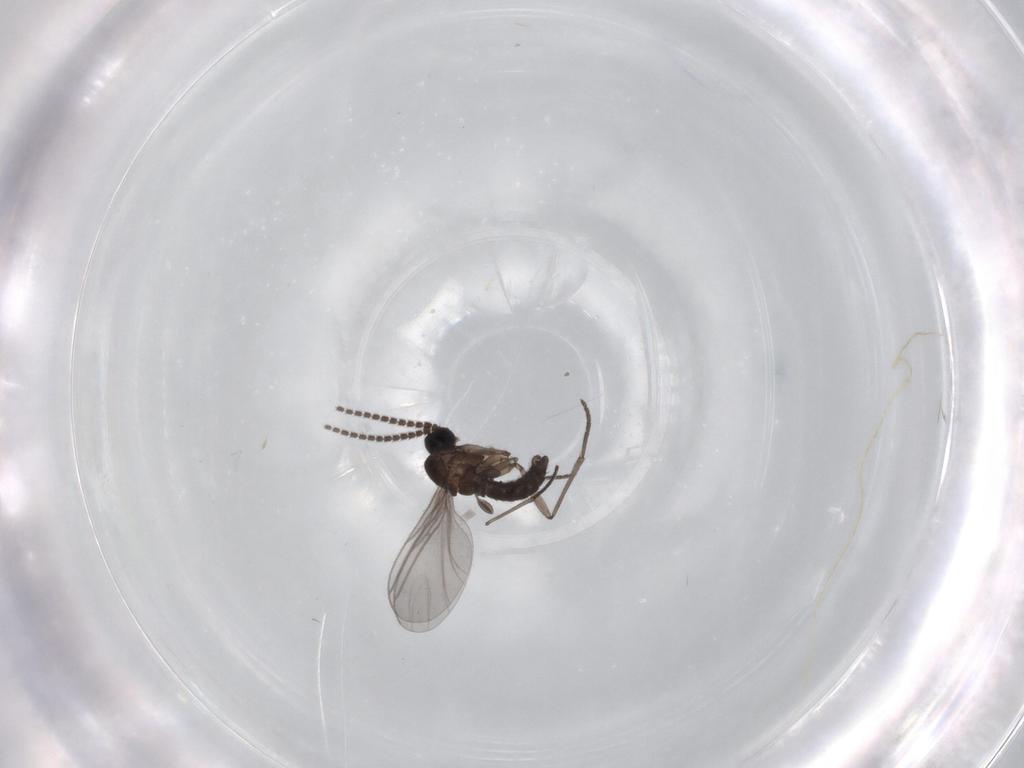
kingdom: Animalia
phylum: Arthropoda
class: Insecta
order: Diptera
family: Sciaridae
